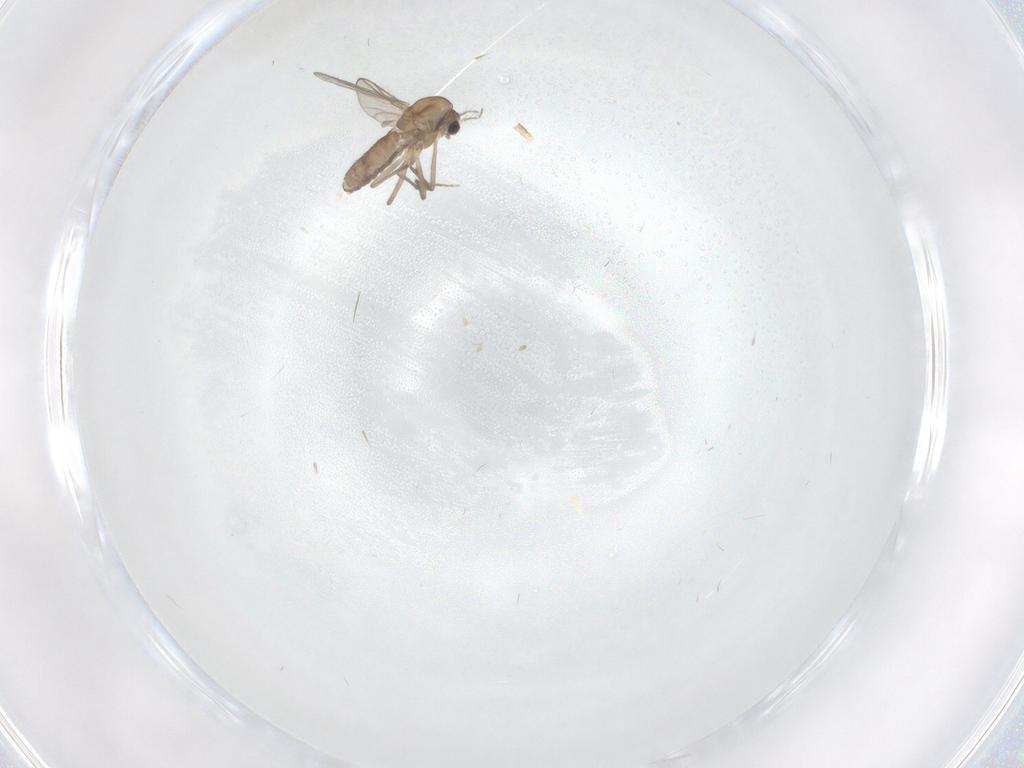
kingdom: Animalia
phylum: Arthropoda
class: Insecta
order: Diptera
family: Chironomidae
